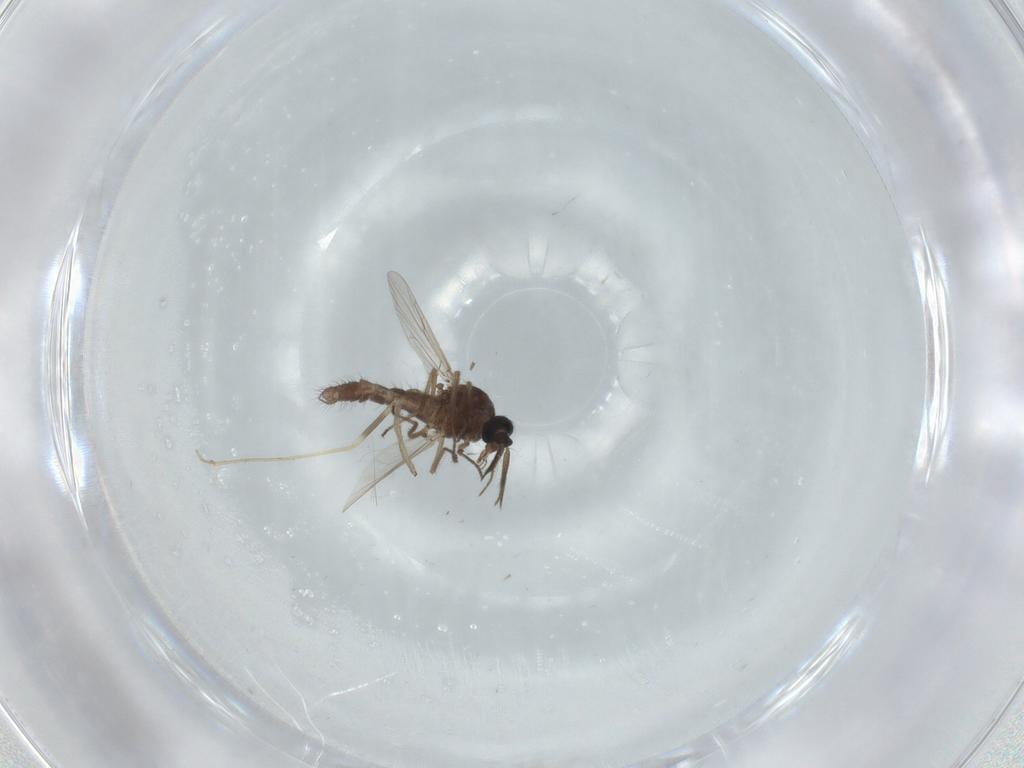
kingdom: Animalia
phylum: Arthropoda
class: Insecta
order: Diptera
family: Ceratopogonidae
